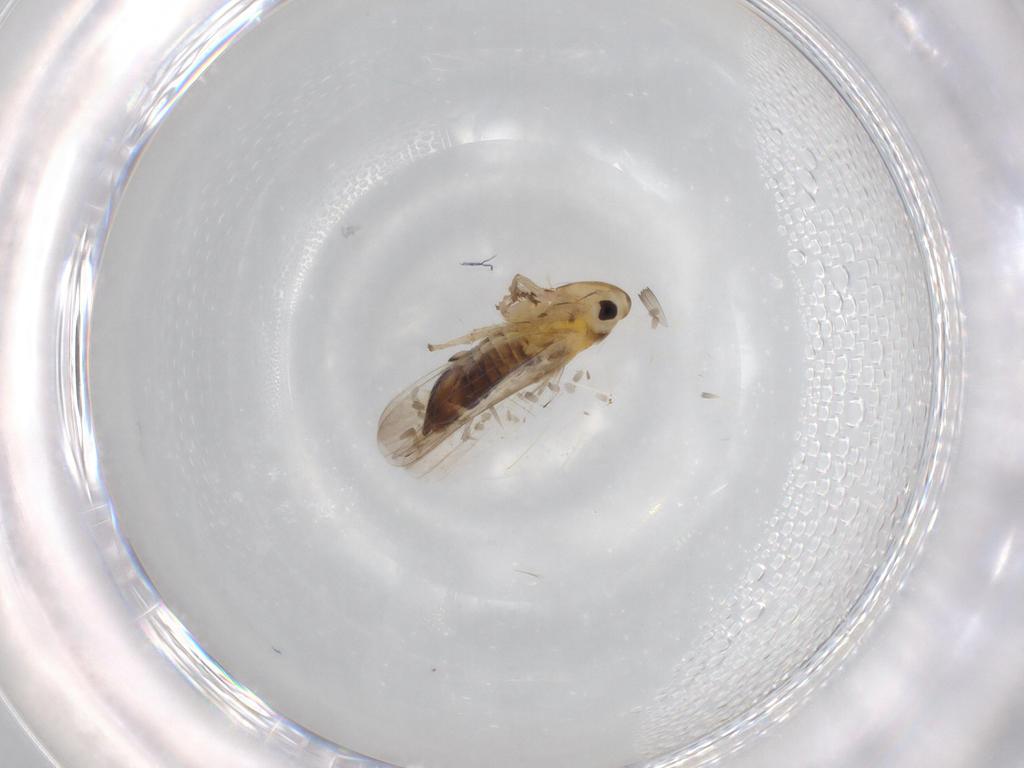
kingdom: Animalia
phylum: Arthropoda
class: Insecta
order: Hemiptera
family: Cicadellidae
